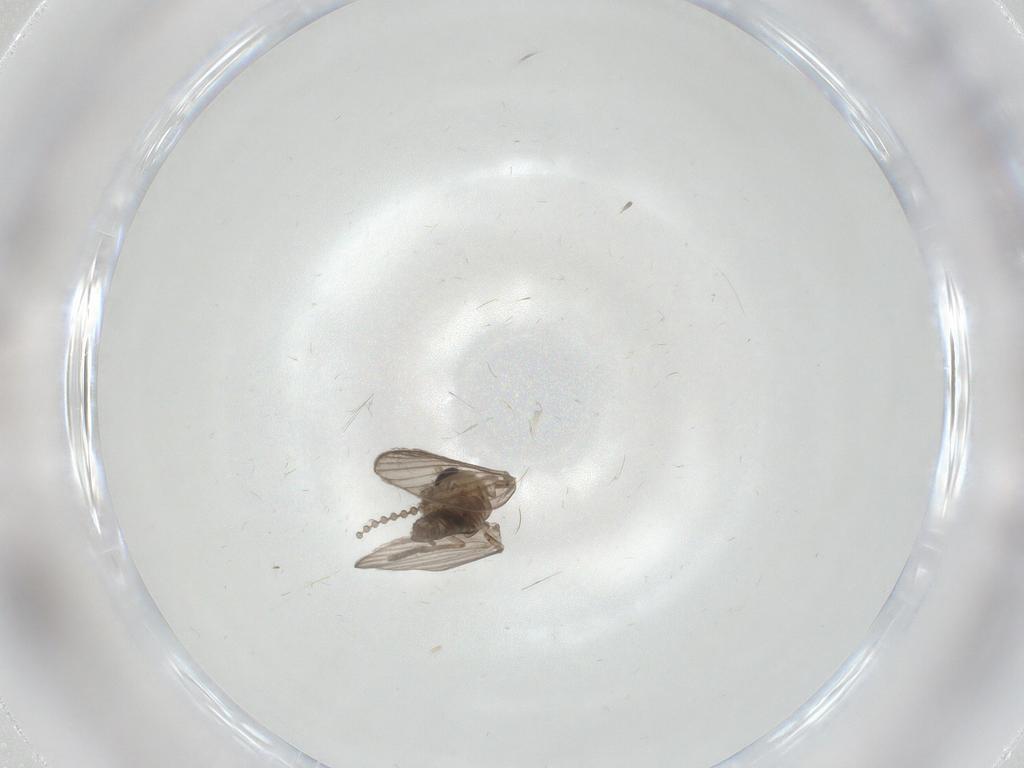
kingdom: Animalia
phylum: Arthropoda
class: Insecta
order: Diptera
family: Psychodidae
